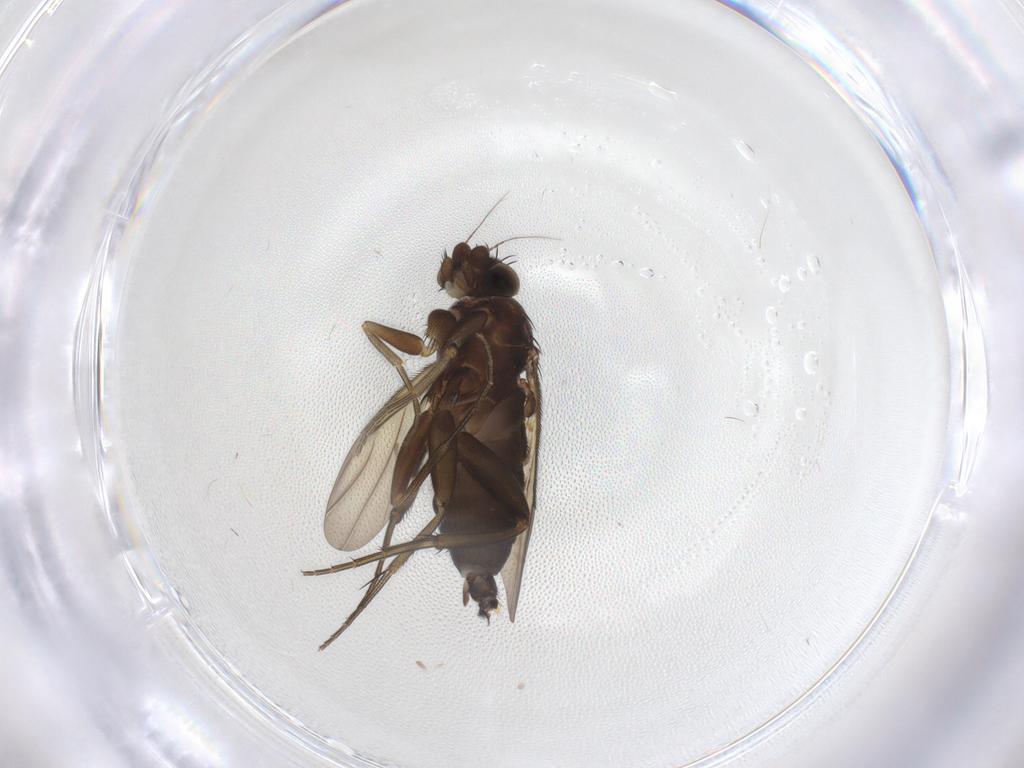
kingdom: Animalia
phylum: Arthropoda
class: Insecta
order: Diptera
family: Phoridae
